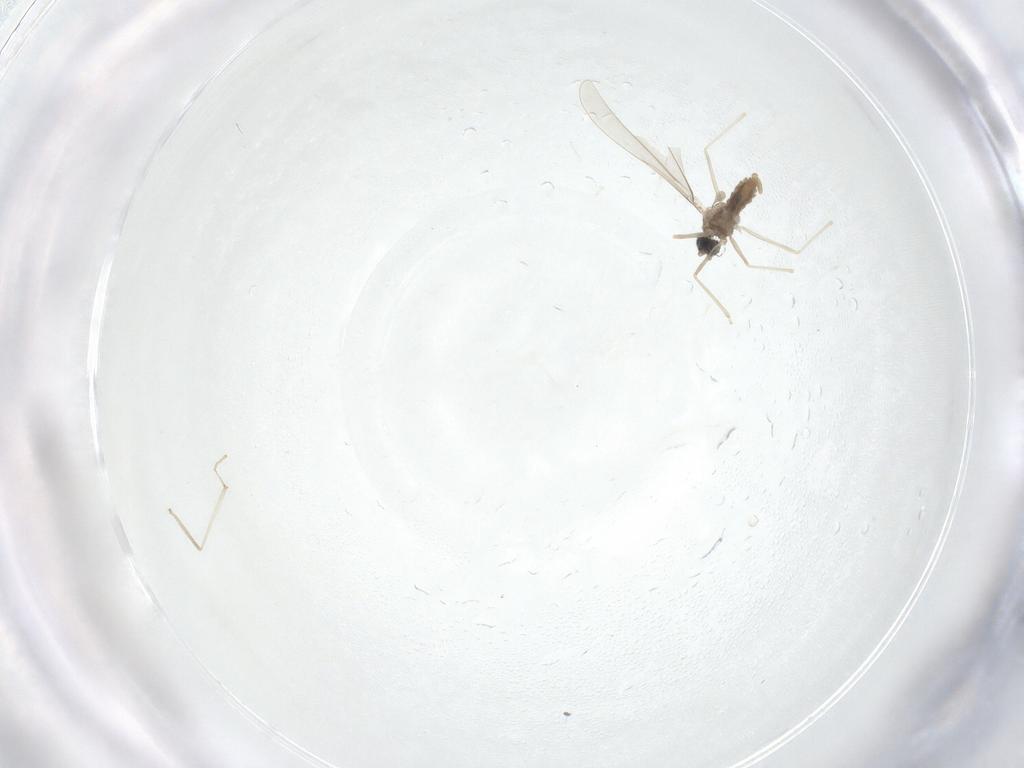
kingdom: Animalia
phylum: Arthropoda
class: Insecta
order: Diptera
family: Cecidomyiidae
